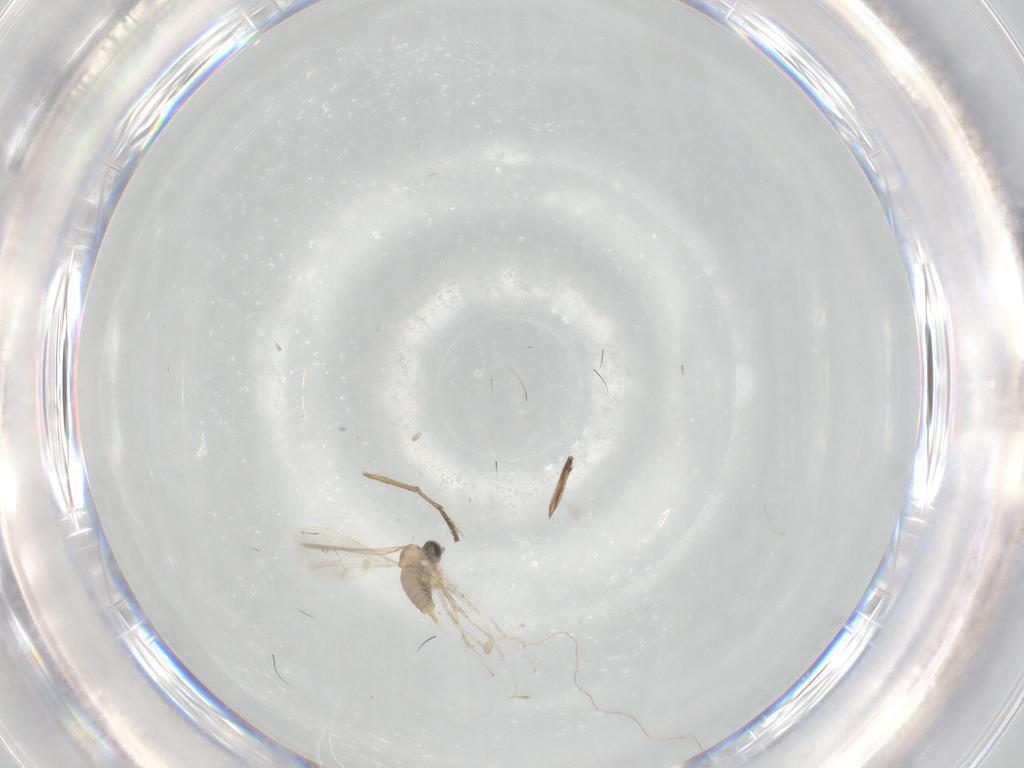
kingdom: Animalia
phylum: Arthropoda
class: Insecta
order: Diptera
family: Cecidomyiidae
